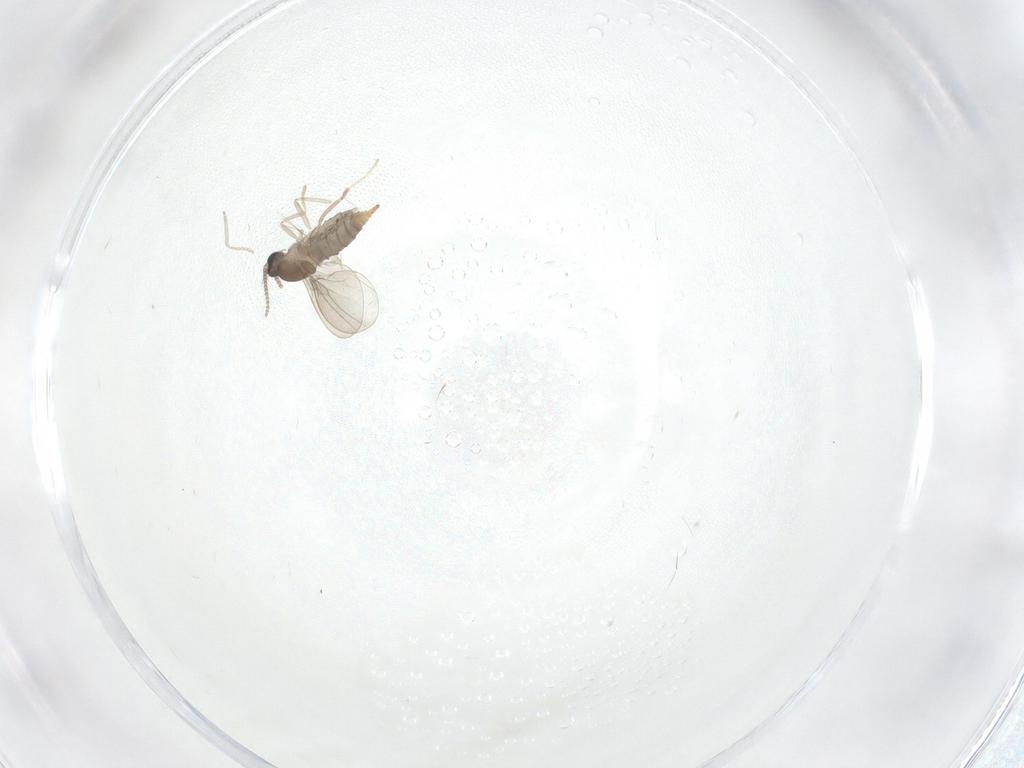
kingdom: Animalia
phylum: Arthropoda
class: Insecta
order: Diptera
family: Cecidomyiidae
